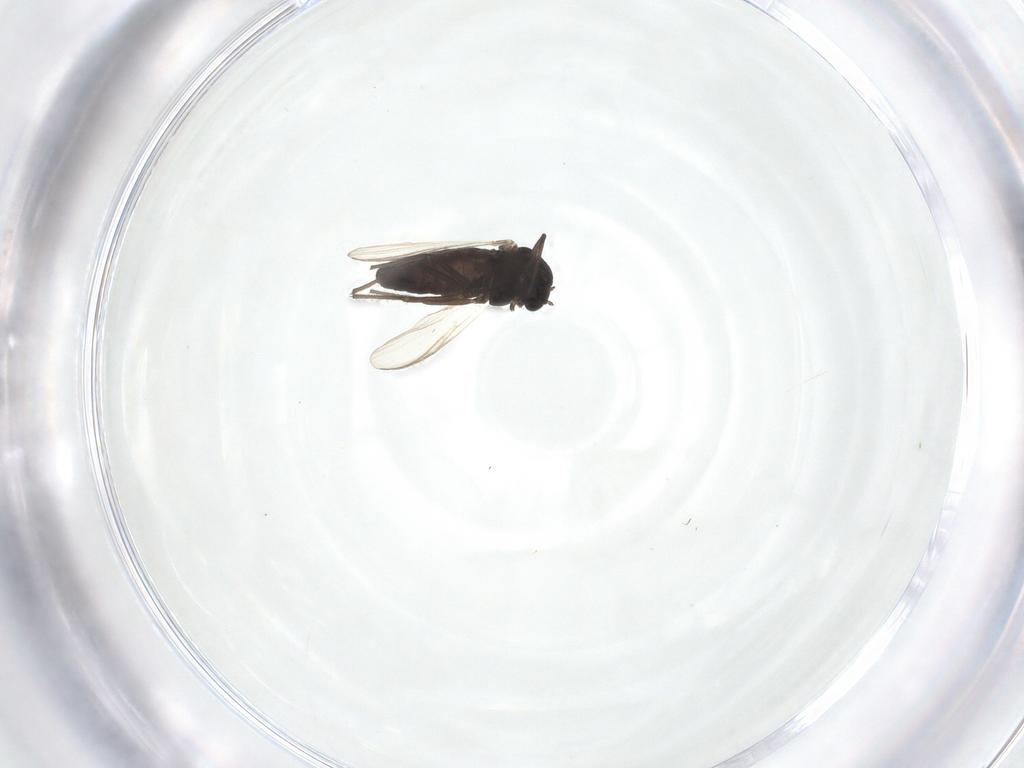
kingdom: Animalia
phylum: Arthropoda
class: Insecta
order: Diptera
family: Chironomidae
